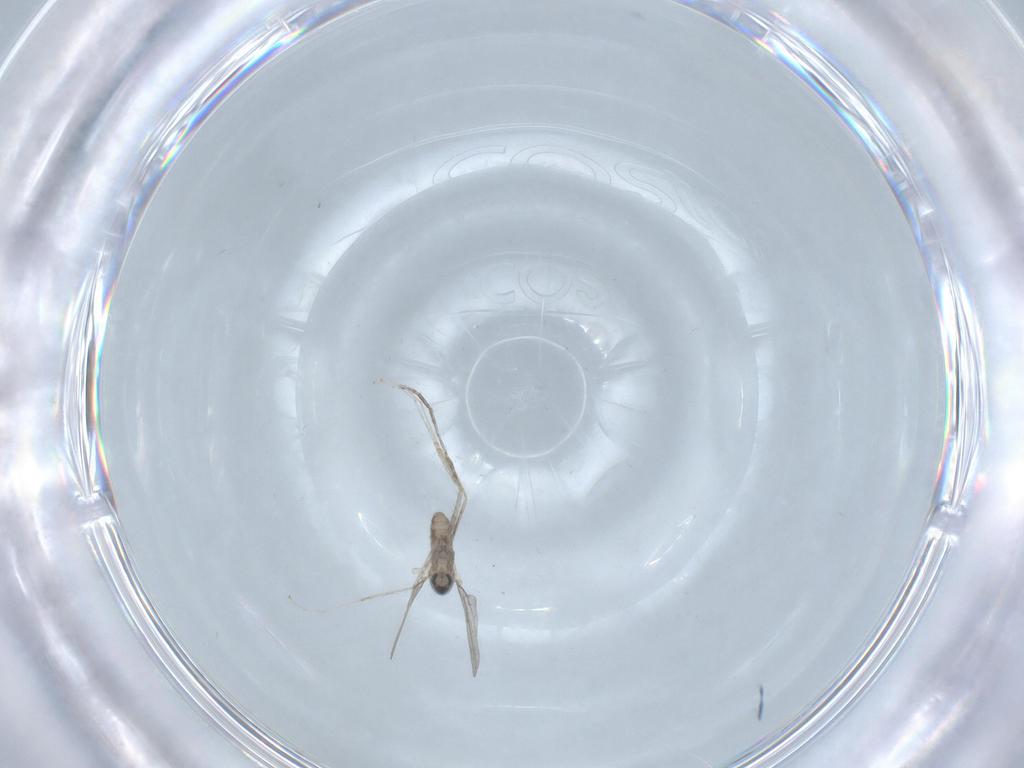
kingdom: Animalia
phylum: Arthropoda
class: Insecta
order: Diptera
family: Cecidomyiidae
